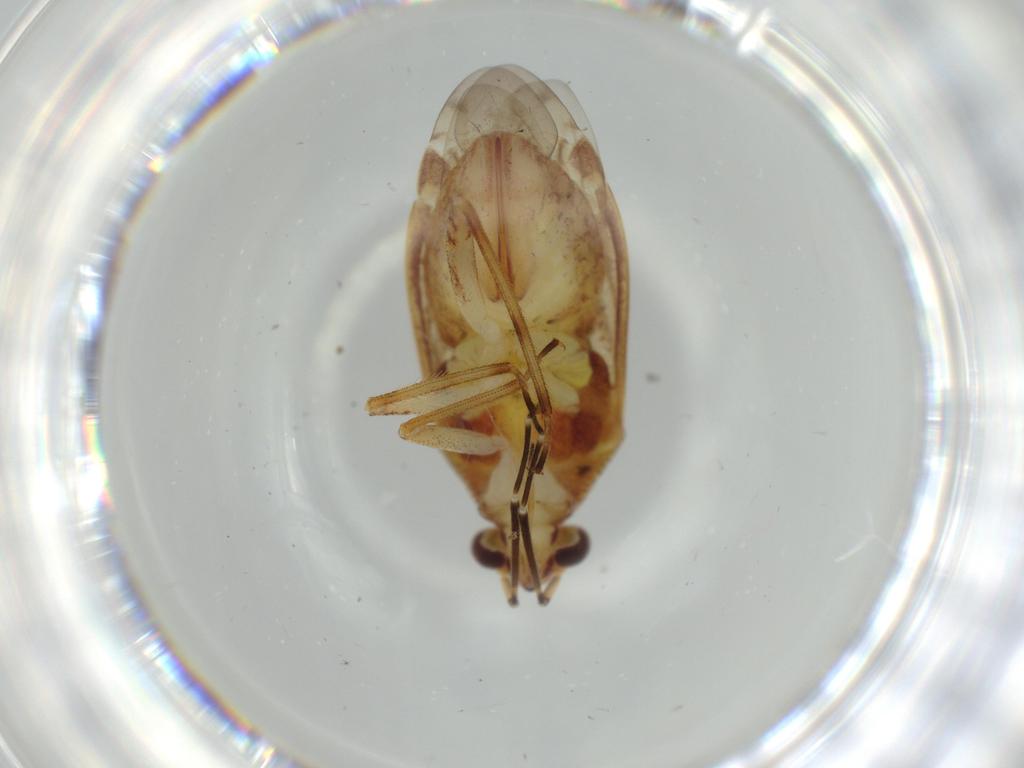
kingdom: Animalia
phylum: Arthropoda
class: Insecta
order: Hemiptera
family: Miridae
